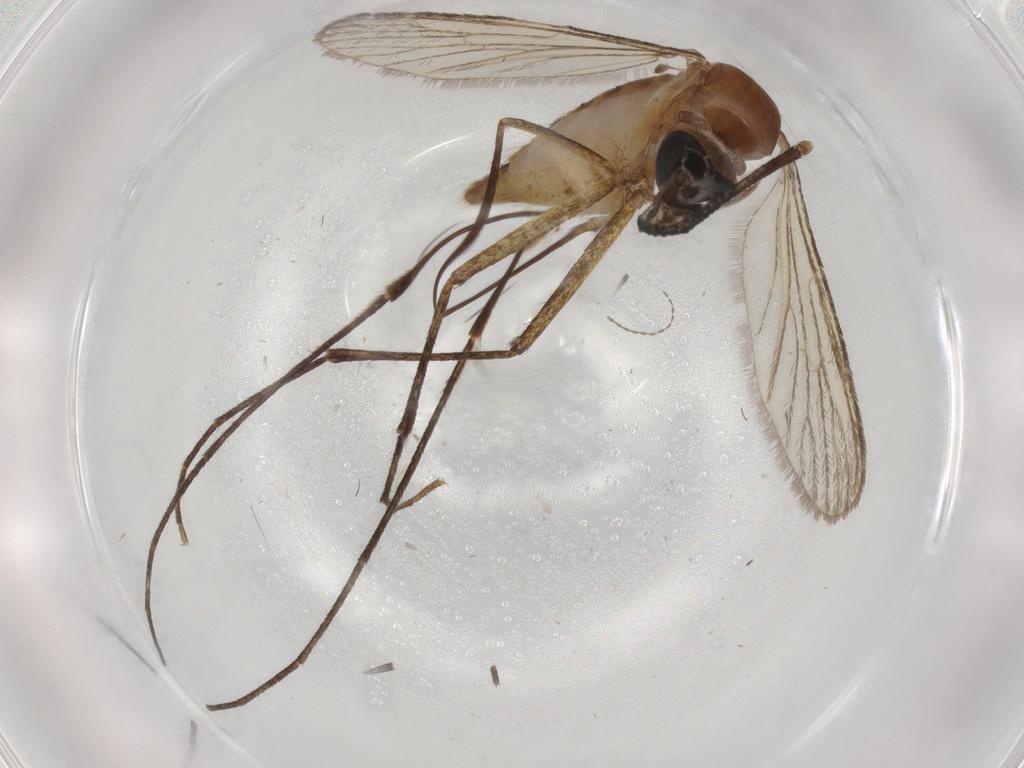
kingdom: Animalia
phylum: Arthropoda
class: Insecta
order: Diptera
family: Ceratopogonidae
